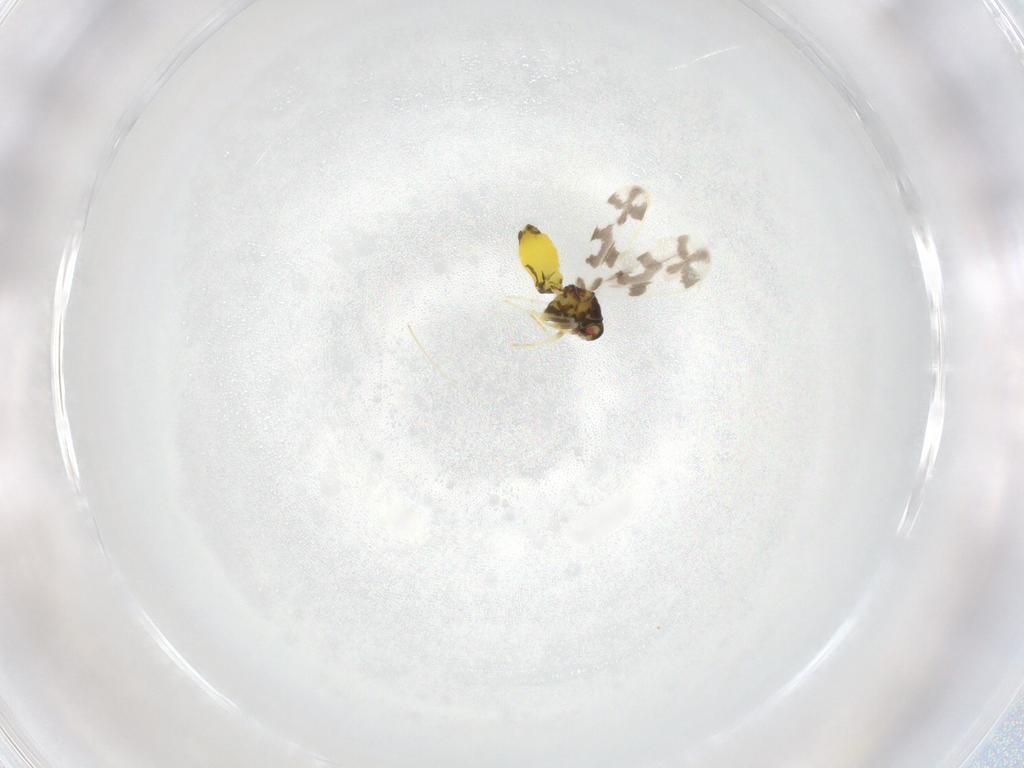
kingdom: Animalia
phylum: Arthropoda
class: Insecta
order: Hemiptera
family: Aleyrodidae
